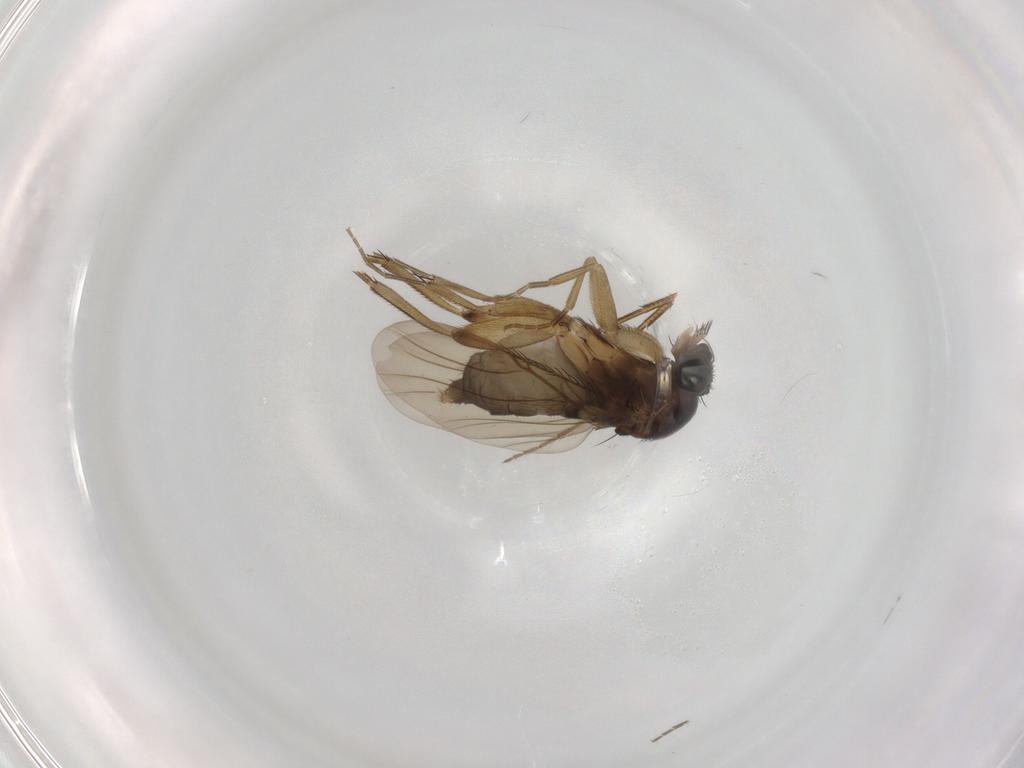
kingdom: Animalia
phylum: Arthropoda
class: Insecta
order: Diptera
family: Phoridae
